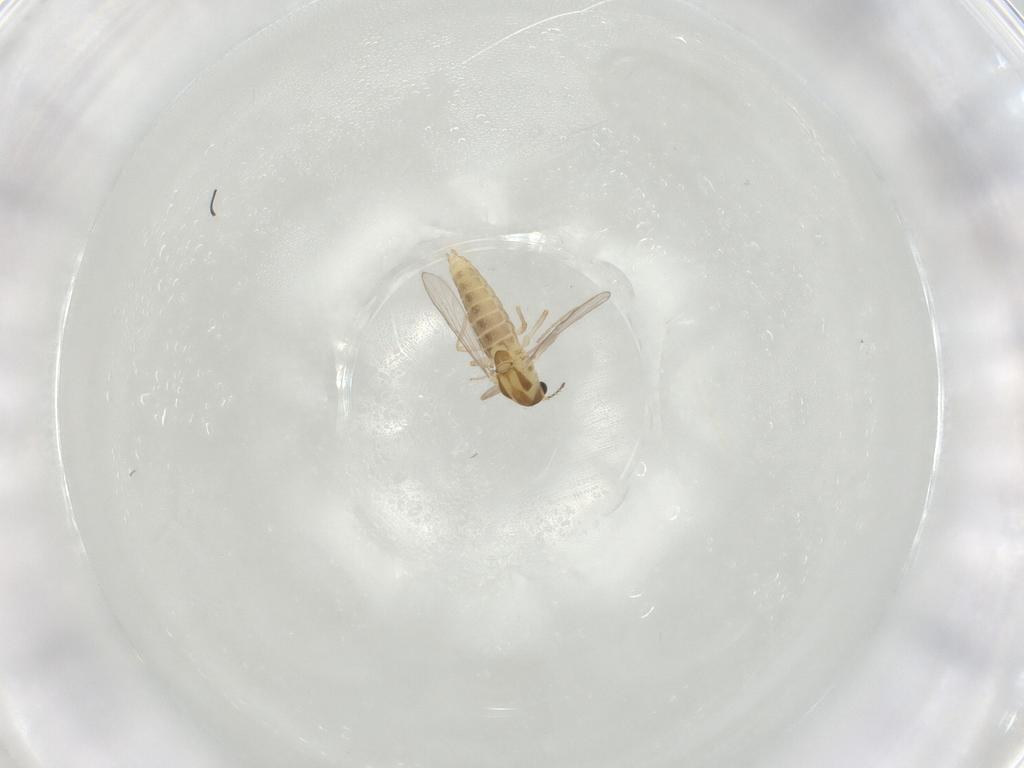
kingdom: Animalia
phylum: Arthropoda
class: Insecta
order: Diptera
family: Chironomidae
